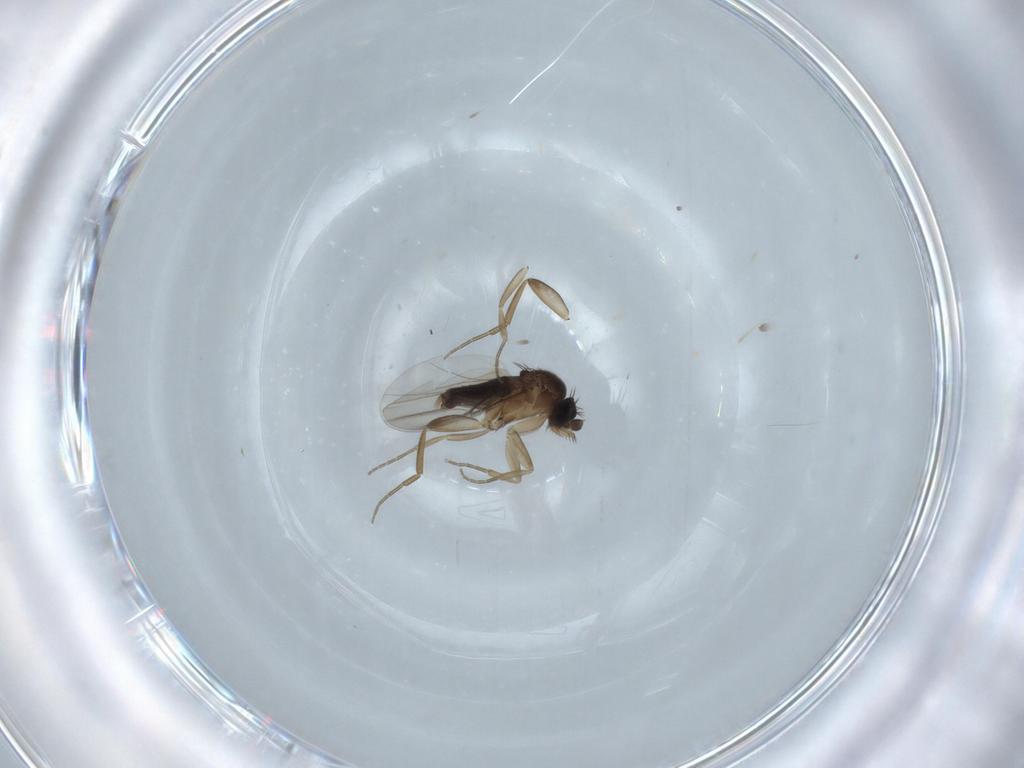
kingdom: Animalia
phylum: Arthropoda
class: Insecta
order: Diptera
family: Phoridae
